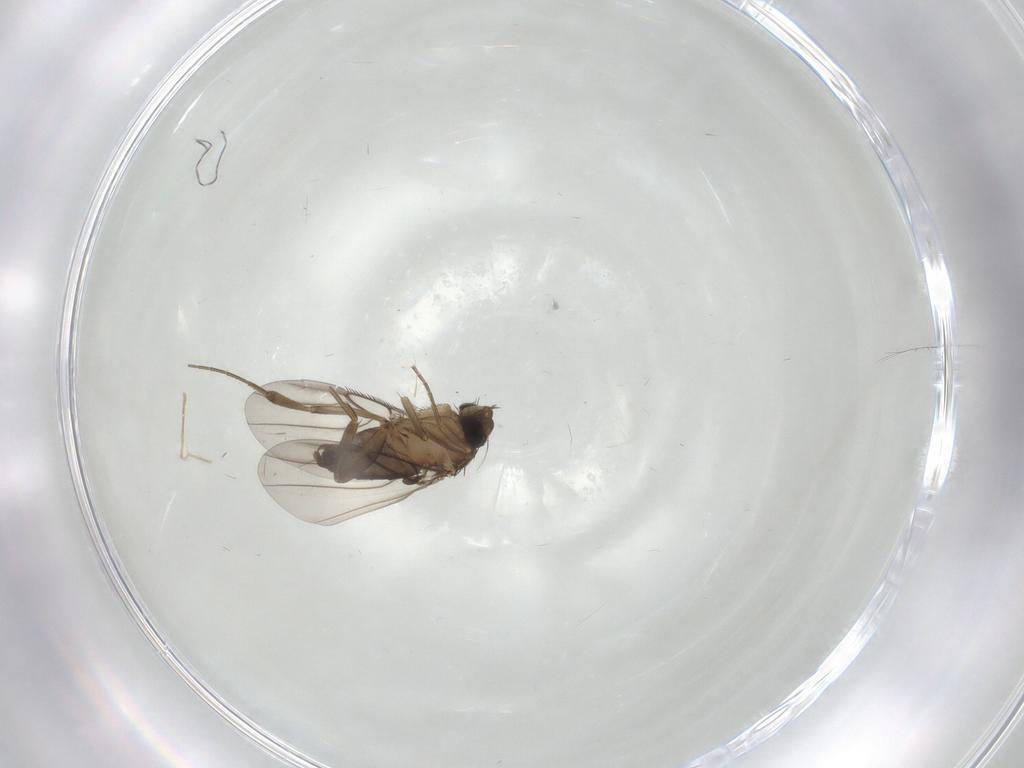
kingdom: Animalia
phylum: Arthropoda
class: Insecta
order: Diptera
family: Phoridae
